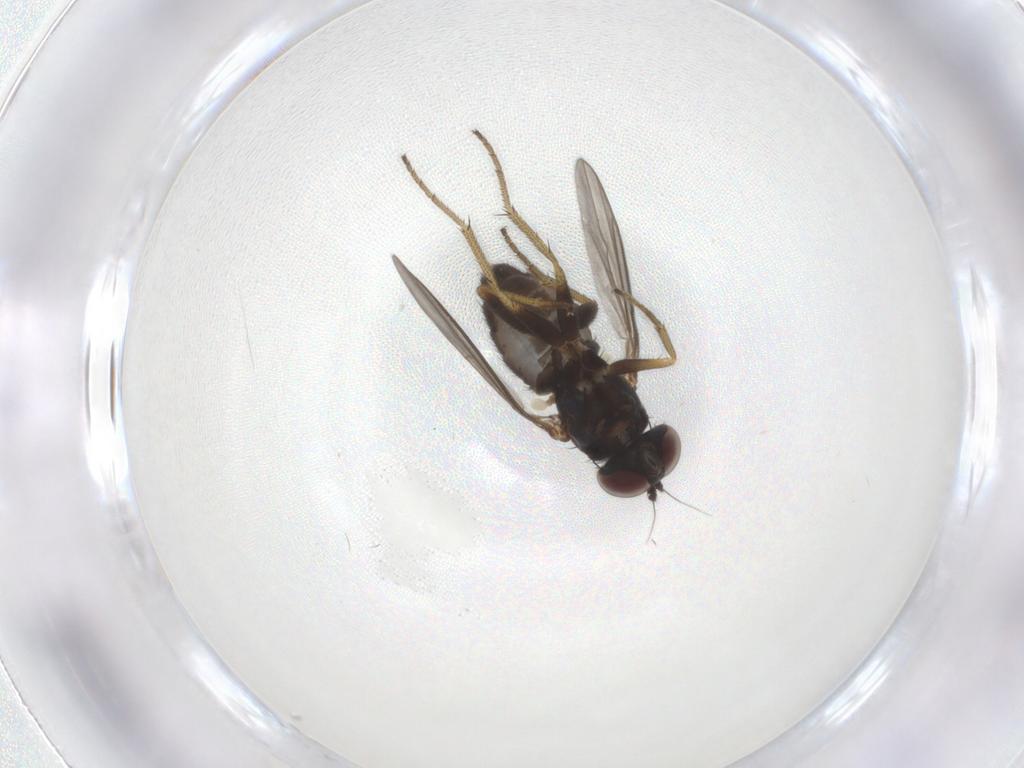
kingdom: Animalia
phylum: Arthropoda
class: Insecta
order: Diptera
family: Dolichopodidae
